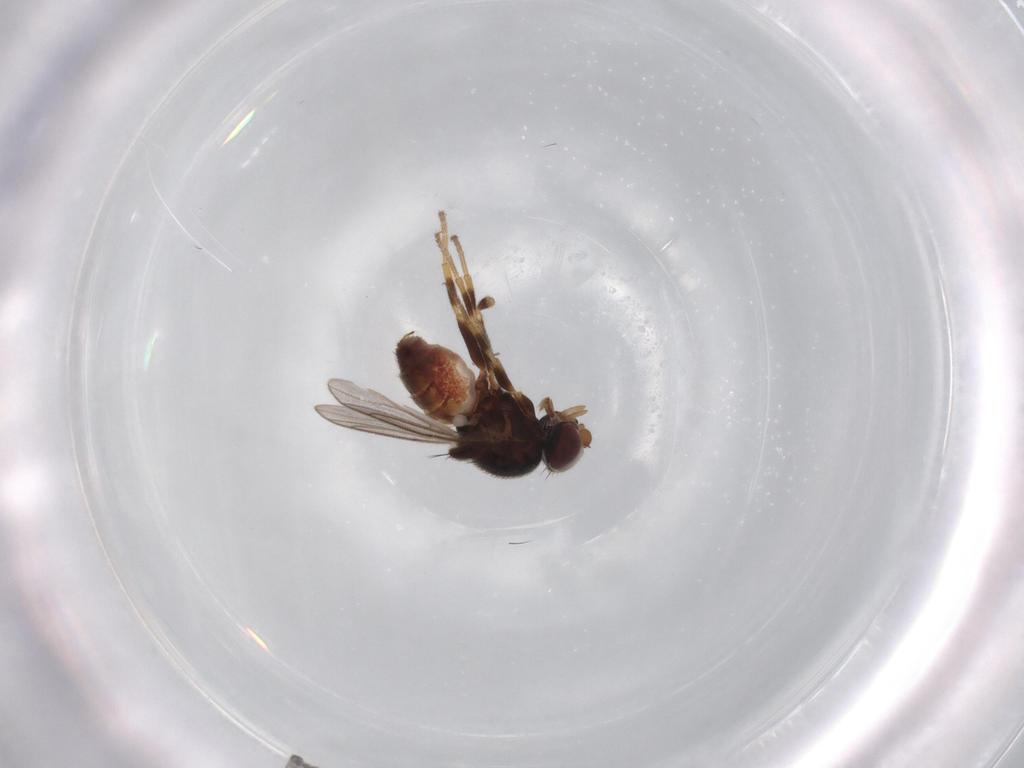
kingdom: Animalia
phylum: Arthropoda
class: Insecta
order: Diptera
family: Chloropidae
